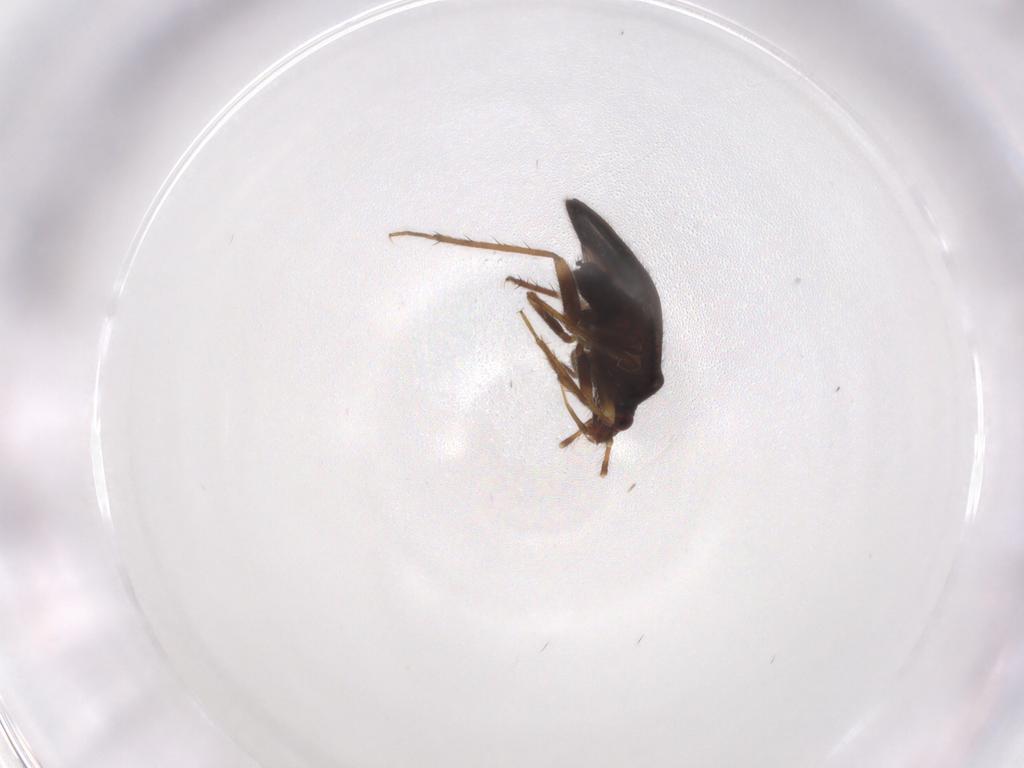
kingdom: Animalia
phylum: Arthropoda
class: Insecta
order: Hemiptera
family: Ceratocombidae
